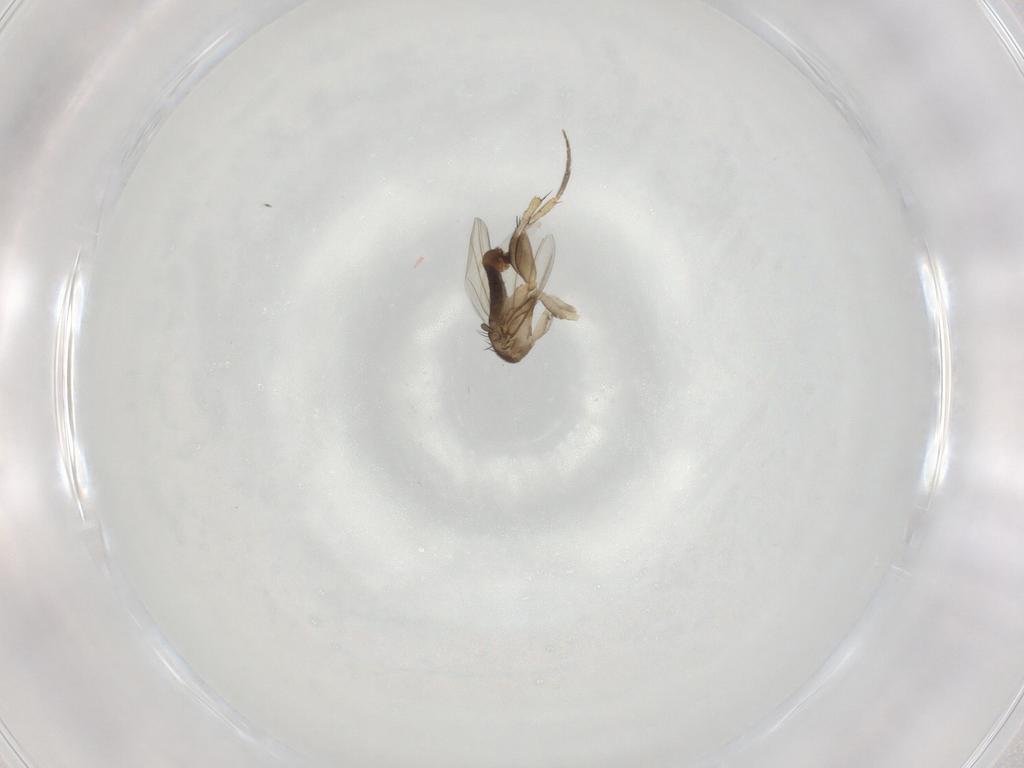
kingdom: Animalia
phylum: Arthropoda
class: Insecta
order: Diptera
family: Phoridae
